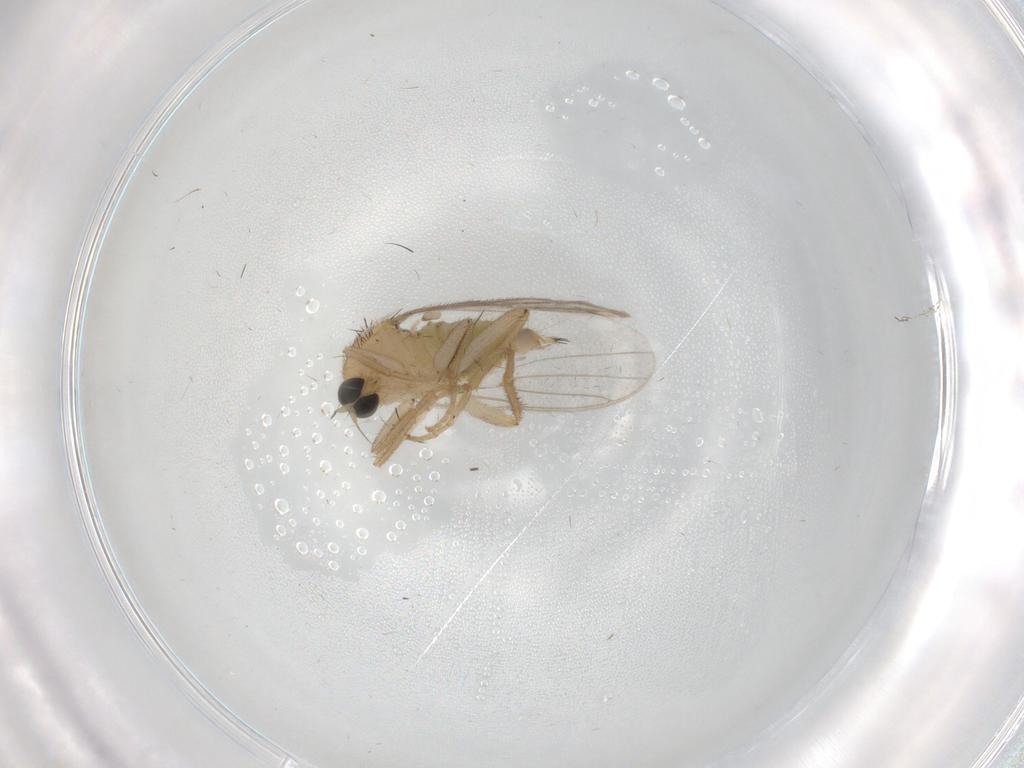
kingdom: Animalia
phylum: Arthropoda
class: Insecta
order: Diptera
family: Hybotidae
